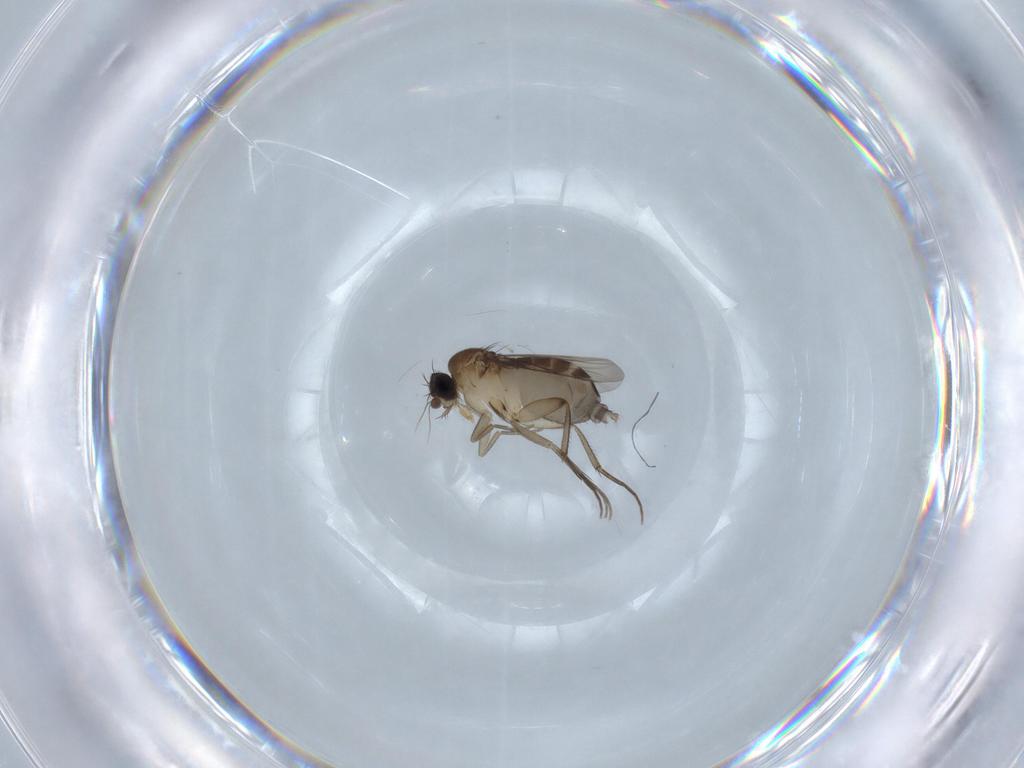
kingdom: Animalia
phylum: Arthropoda
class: Insecta
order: Diptera
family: Phoridae
